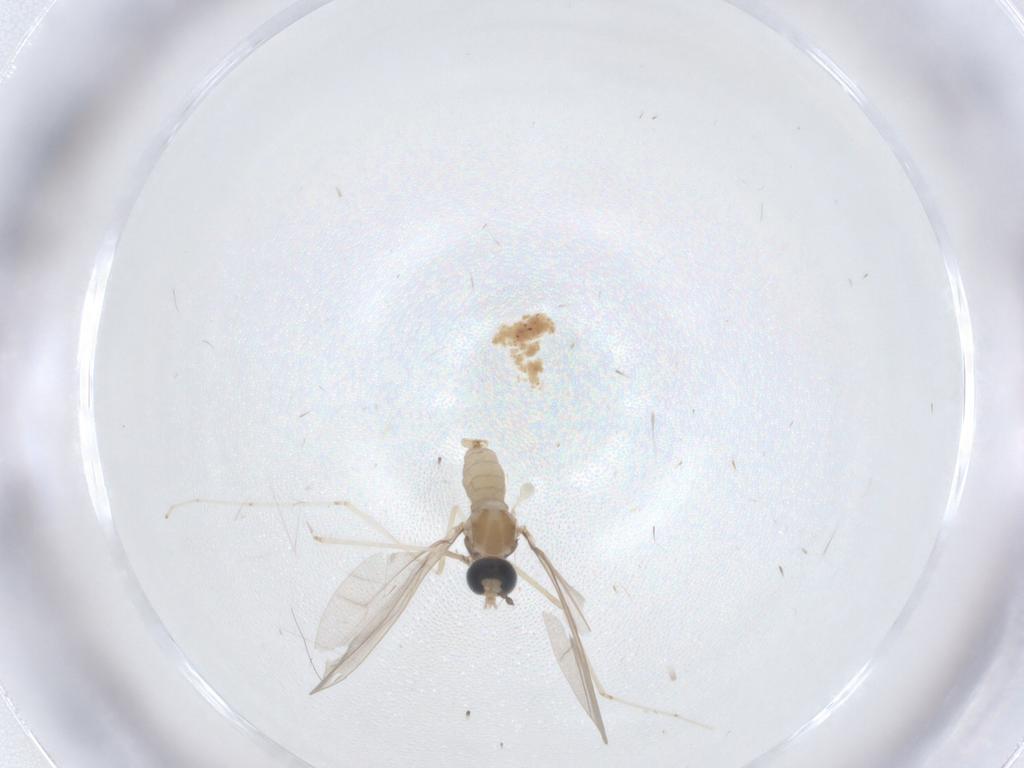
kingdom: Animalia
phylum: Arthropoda
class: Insecta
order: Diptera
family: Cecidomyiidae
